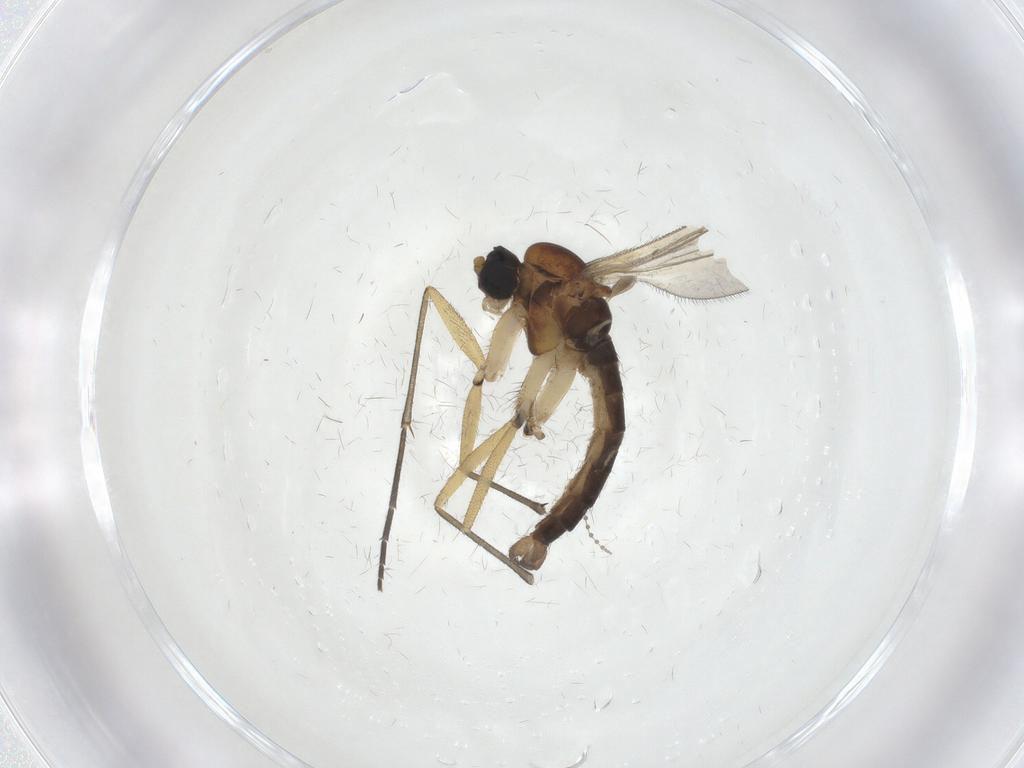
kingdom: Animalia
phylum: Arthropoda
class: Insecta
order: Diptera
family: Sciaridae
